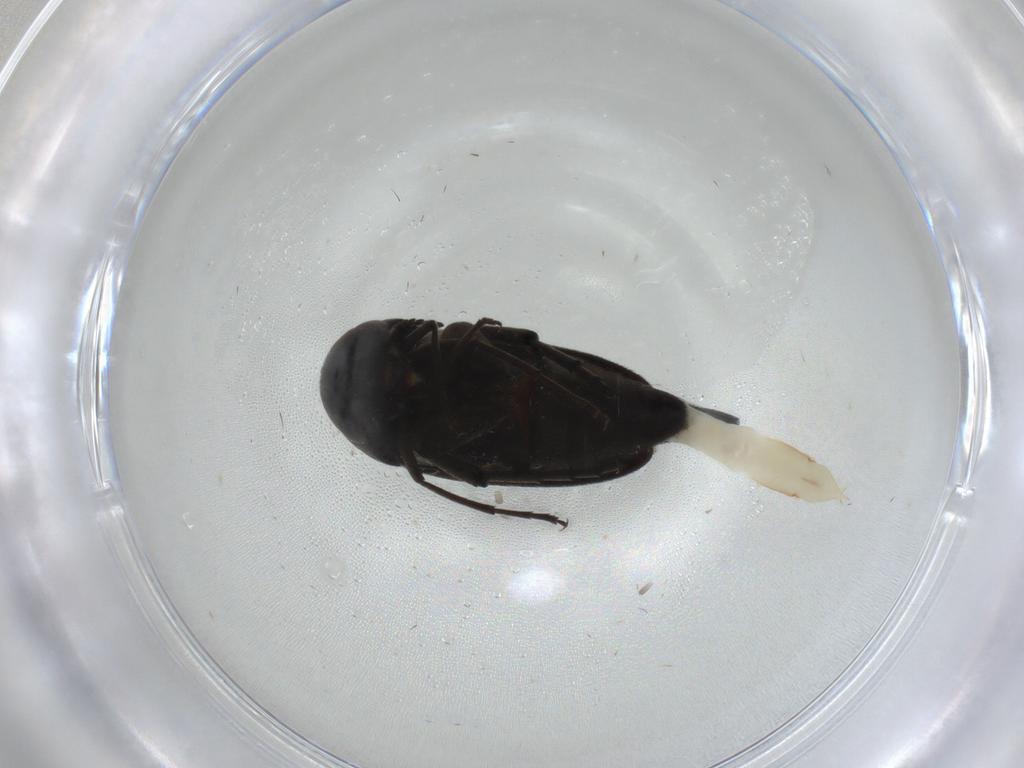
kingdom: Animalia
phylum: Arthropoda
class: Insecta
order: Coleoptera
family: Mordellidae
